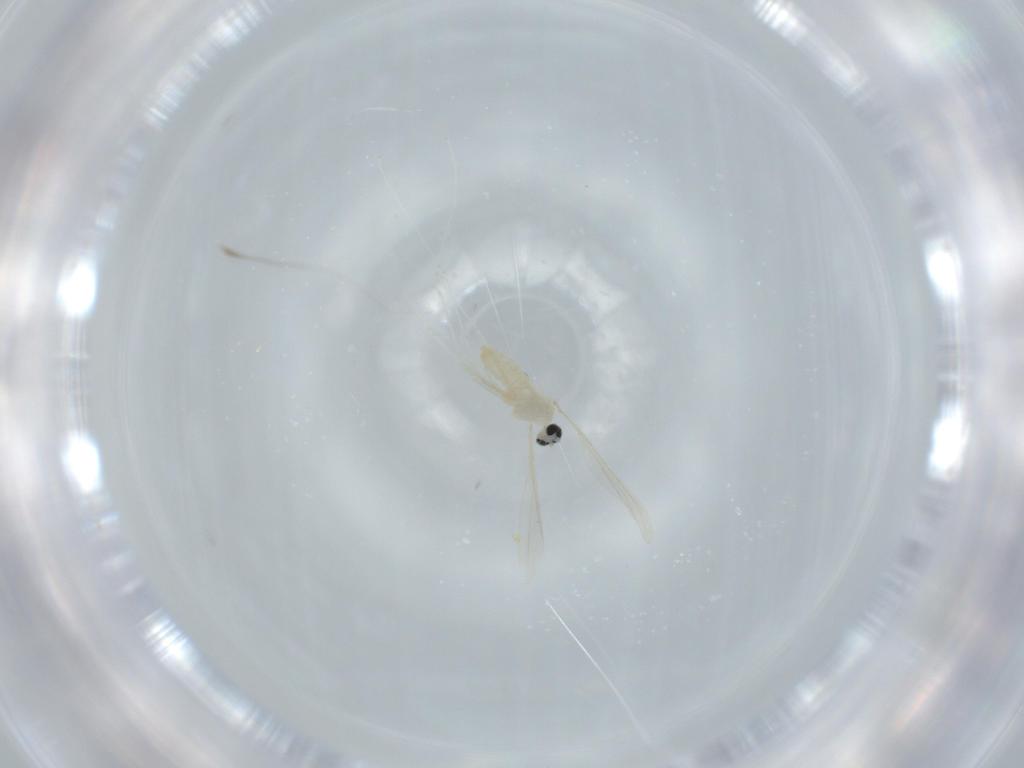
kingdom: Animalia
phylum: Arthropoda
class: Insecta
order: Diptera
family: Cecidomyiidae
